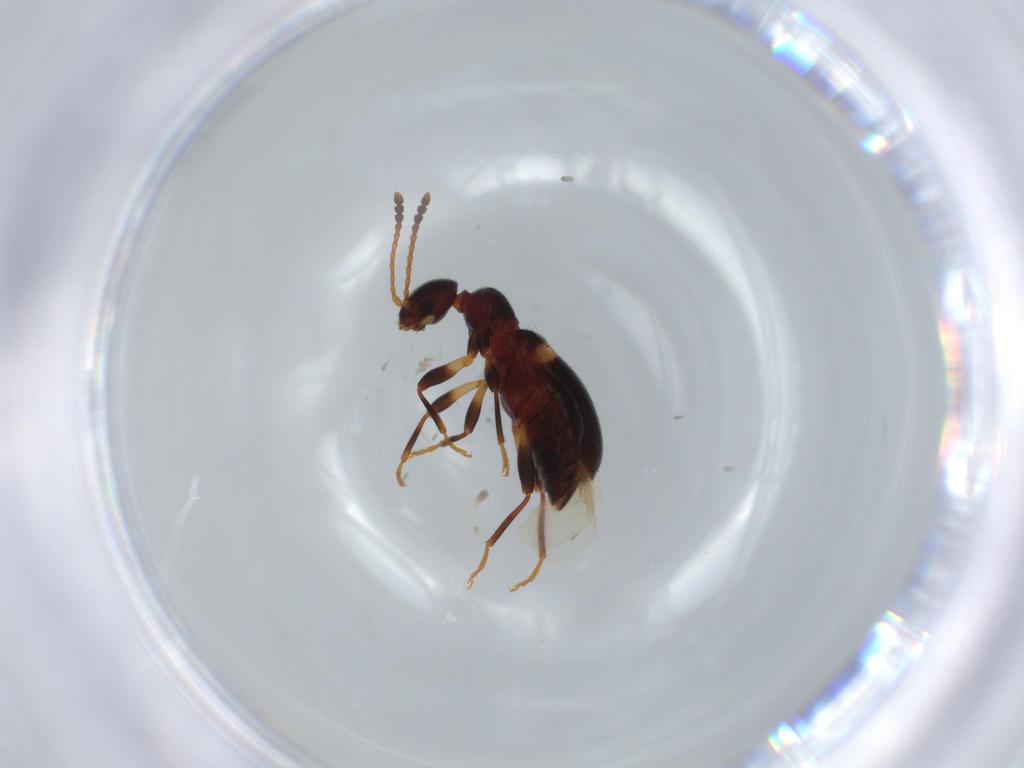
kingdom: Animalia
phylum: Arthropoda
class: Insecta
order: Coleoptera
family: Anthicidae
